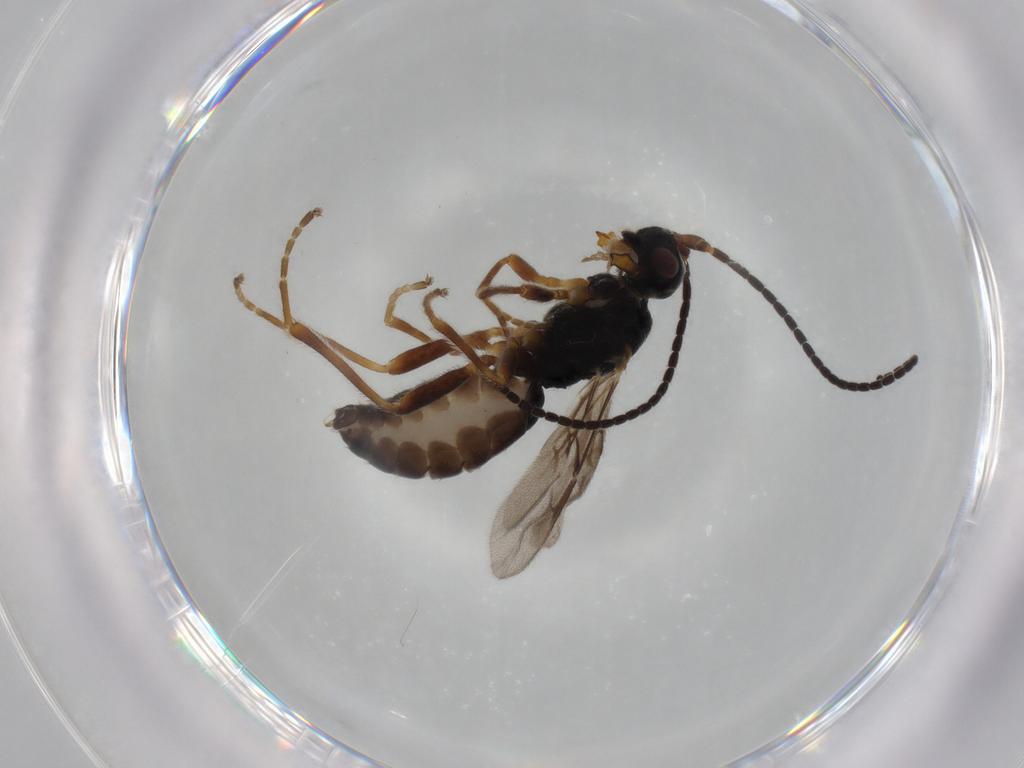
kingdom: Animalia
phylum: Arthropoda
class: Insecta
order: Hymenoptera
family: Braconidae
